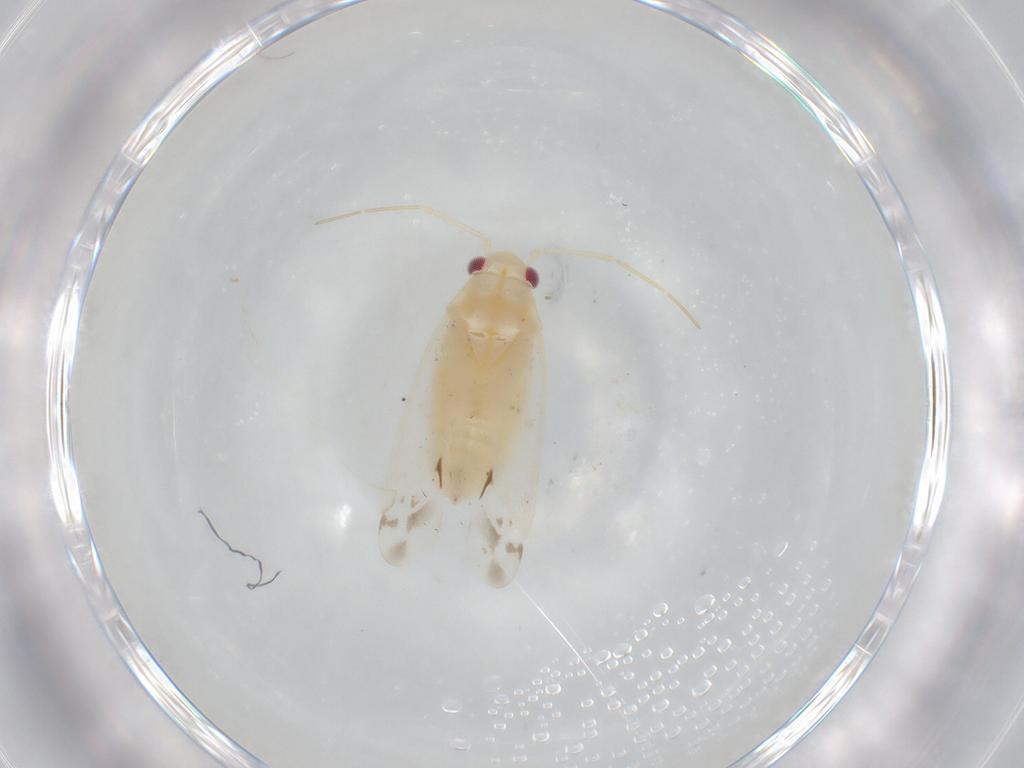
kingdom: Animalia
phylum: Arthropoda
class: Insecta
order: Hemiptera
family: Miridae
